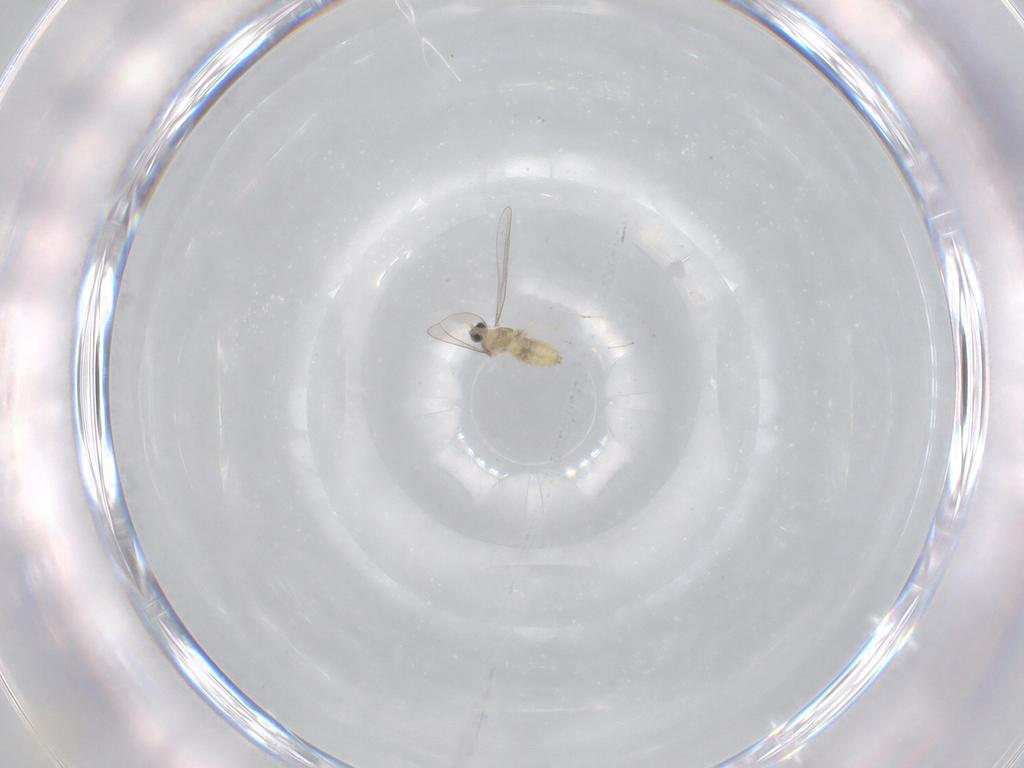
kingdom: Animalia
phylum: Arthropoda
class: Insecta
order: Diptera
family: Cecidomyiidae
